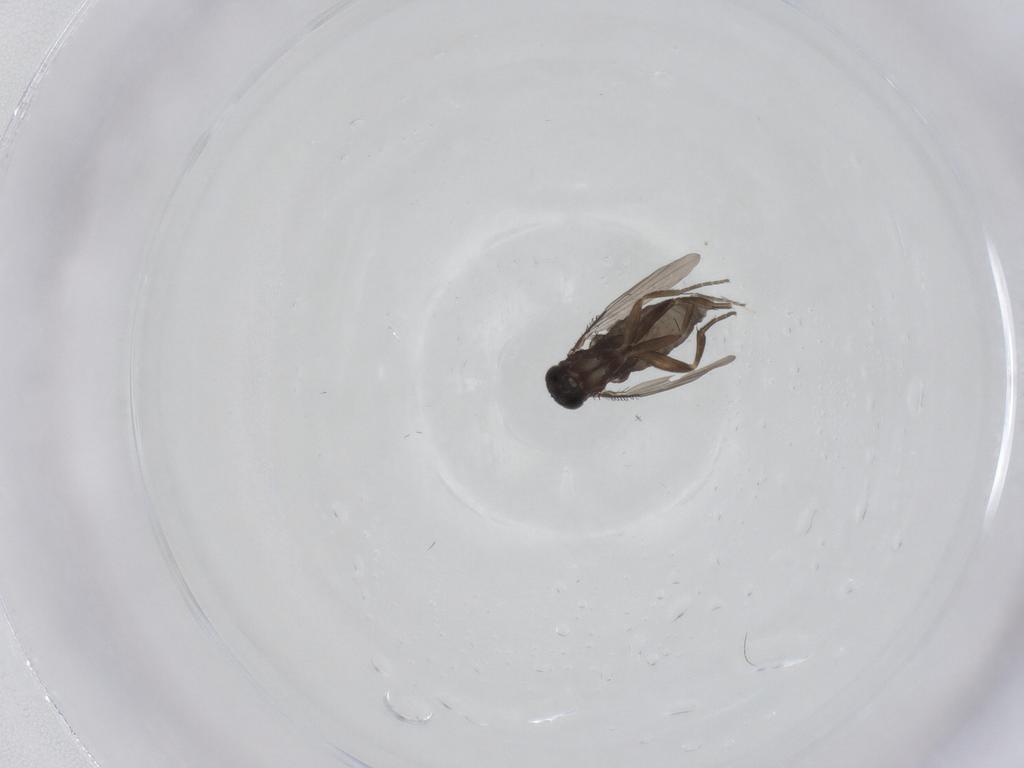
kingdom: Animalia
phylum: Arthropoda
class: Insecta
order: Diptera
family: Phoridae
